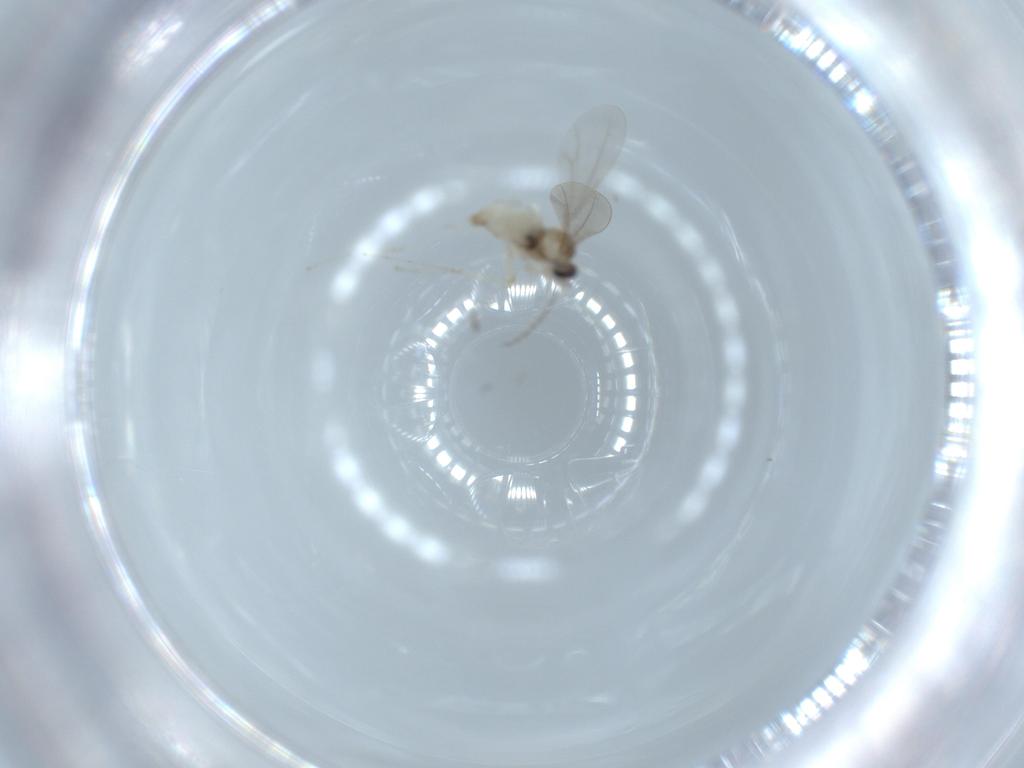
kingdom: Animalia
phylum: Arthropoda
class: Insecta
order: Diptera
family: Cecidomyiidae
